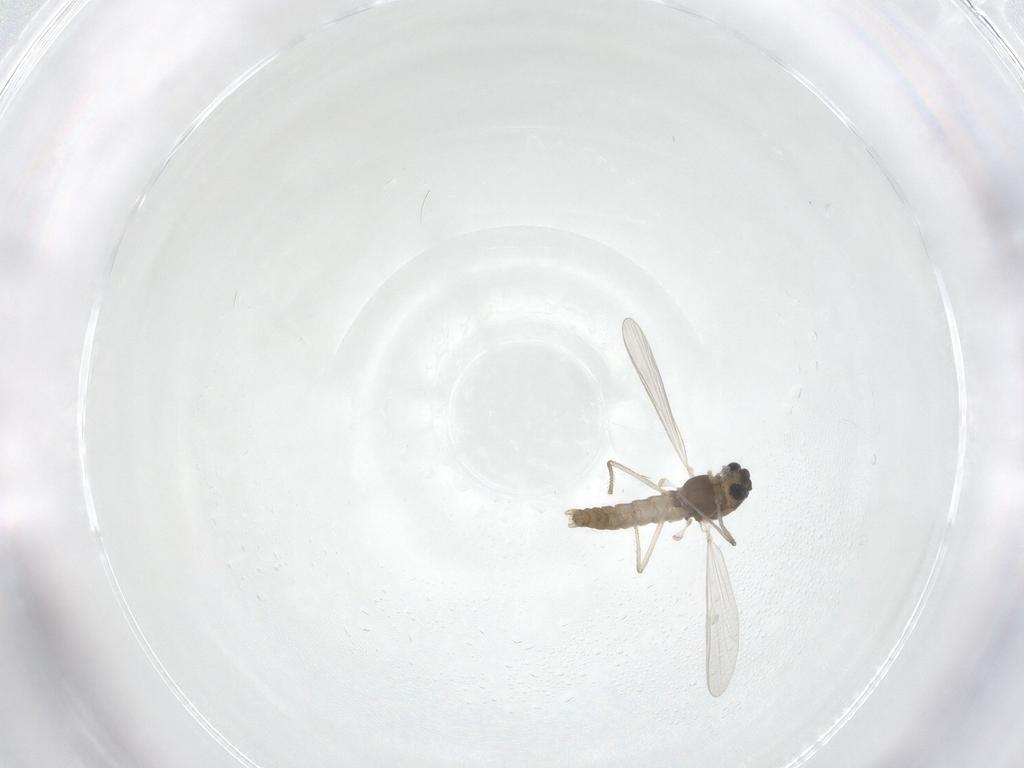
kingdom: Animalia
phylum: Arthropoda
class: Insecta
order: Diptera
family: Chironomidae
